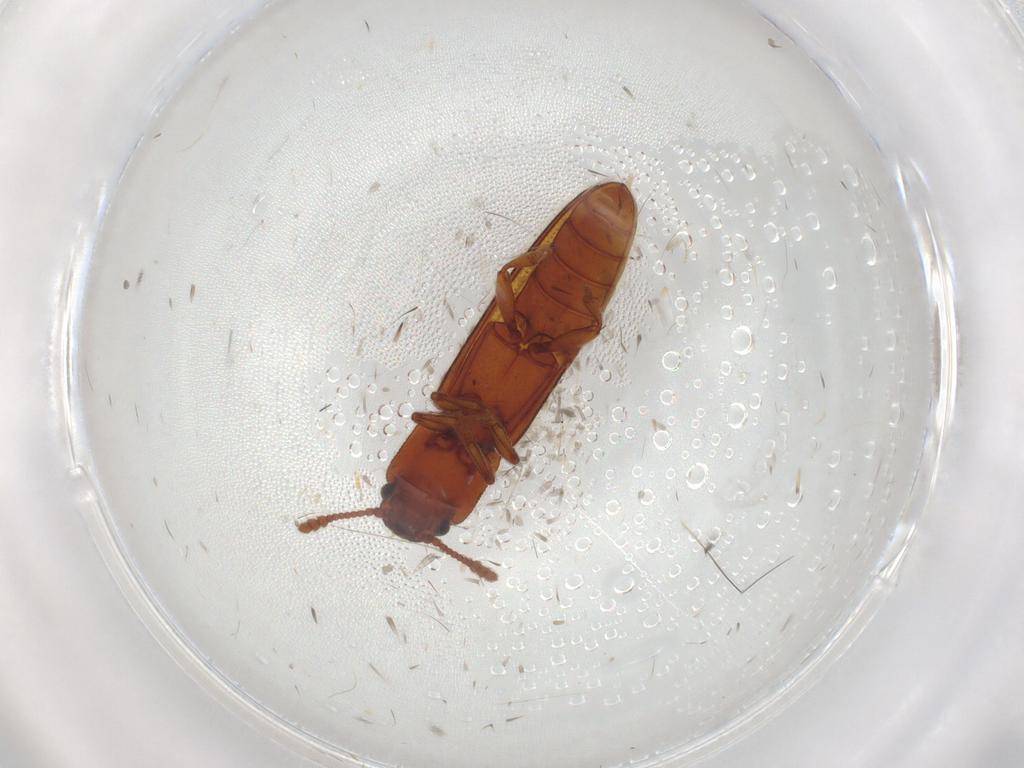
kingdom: Animalia
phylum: Arthropoda
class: Insecta
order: Coleoptera
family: Erotylidae
